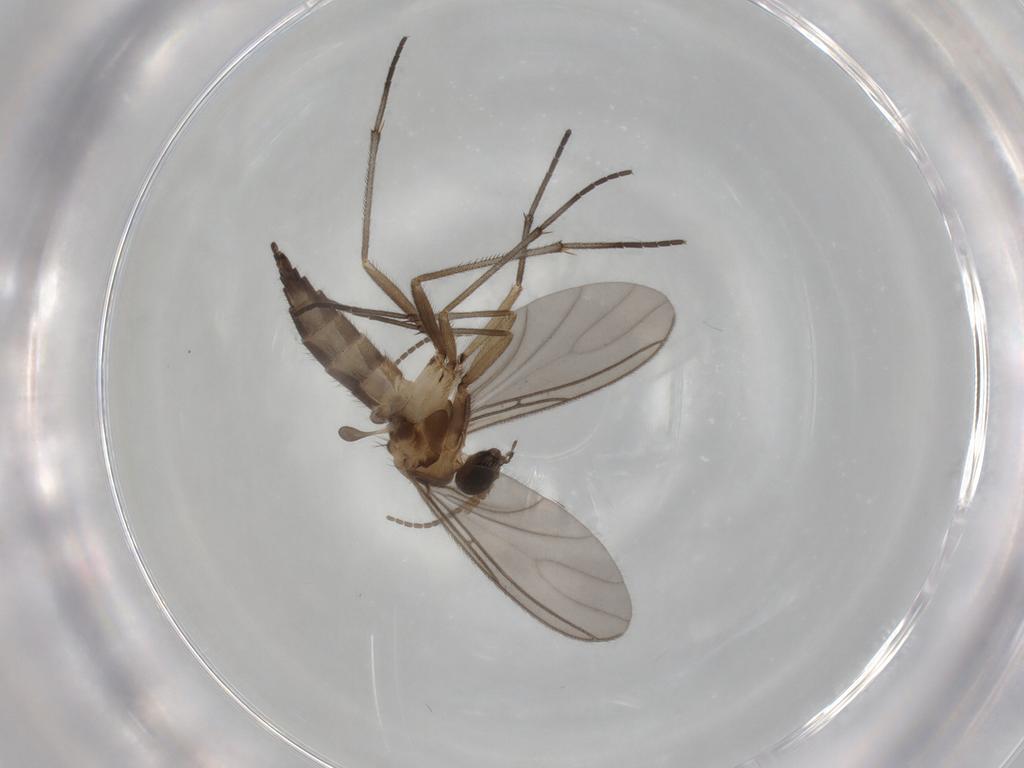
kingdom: Animalia
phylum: Arthropoda
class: Insecta
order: Diptera
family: Sciaridae
